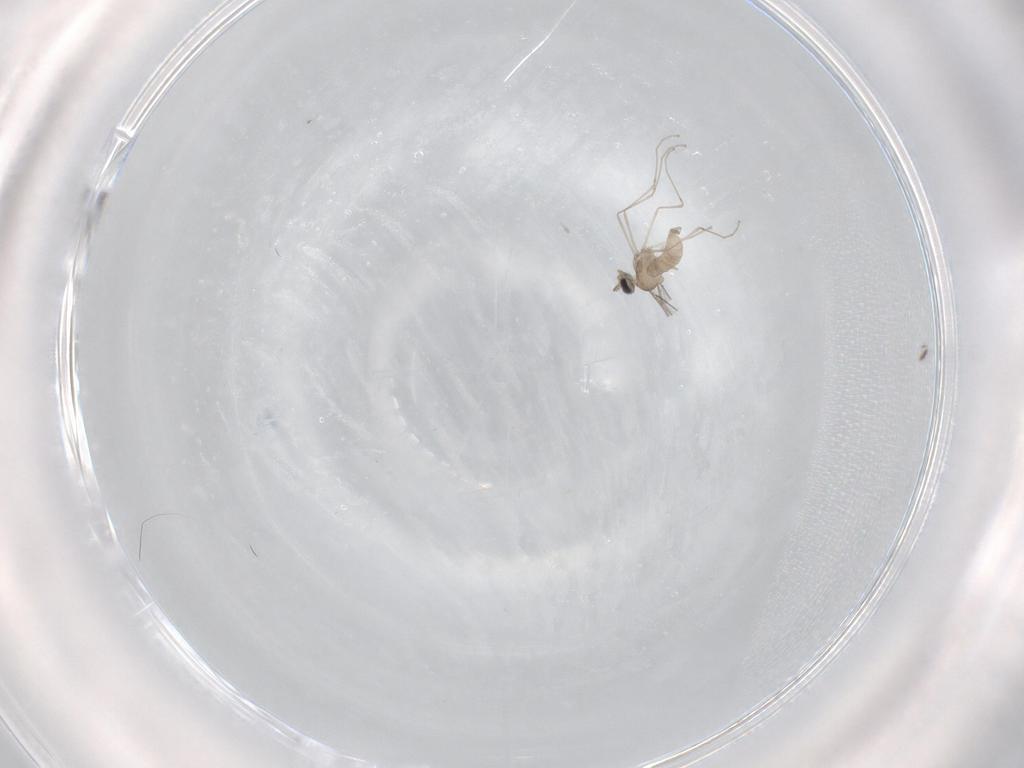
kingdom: Animalia
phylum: Arthropoda
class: Insecta
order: Diptera
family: Cecidomyiidae
